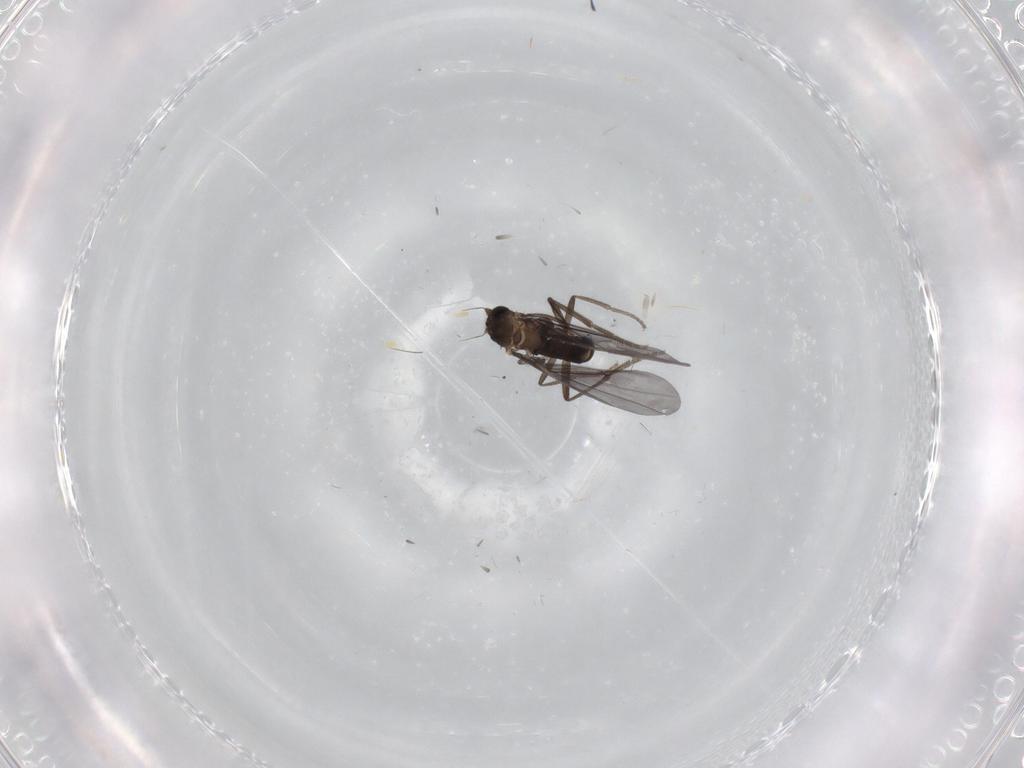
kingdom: Animalia
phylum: Arthropoda
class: Insecta
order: Diptera
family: Phoridae
